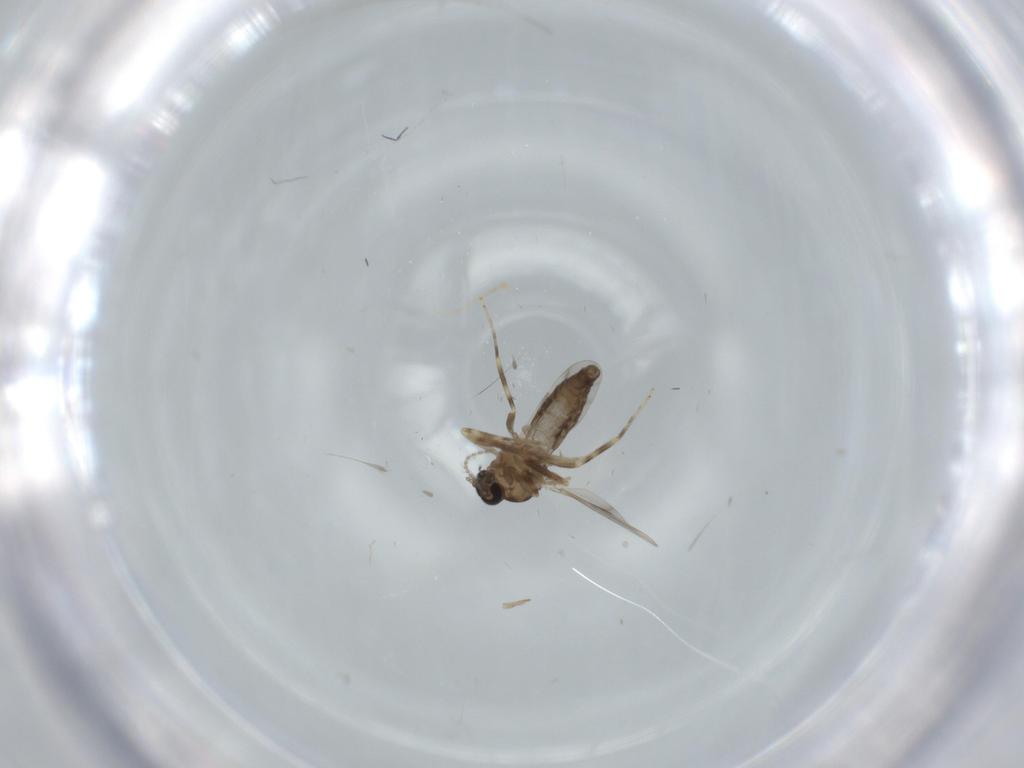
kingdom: Animalia
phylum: Arthropoda
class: Insecta
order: Diptera
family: Ceratopogonidae
